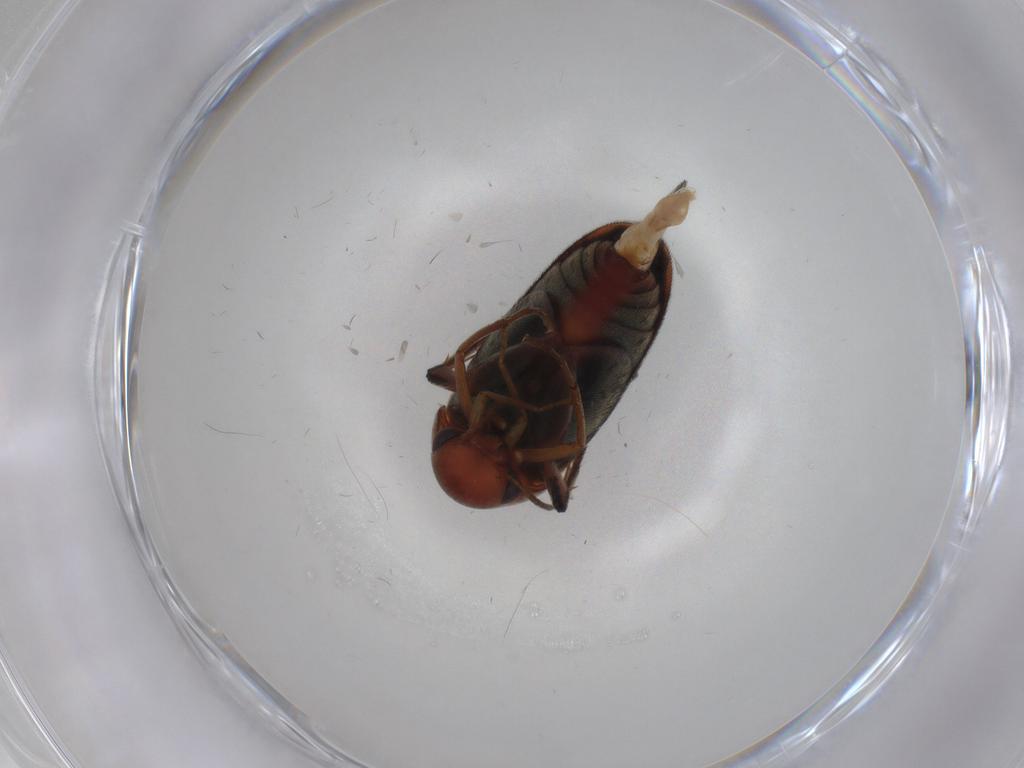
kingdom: Animalia
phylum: Arthropoda
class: Insecta
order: Coleoptera
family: Mordellidae
